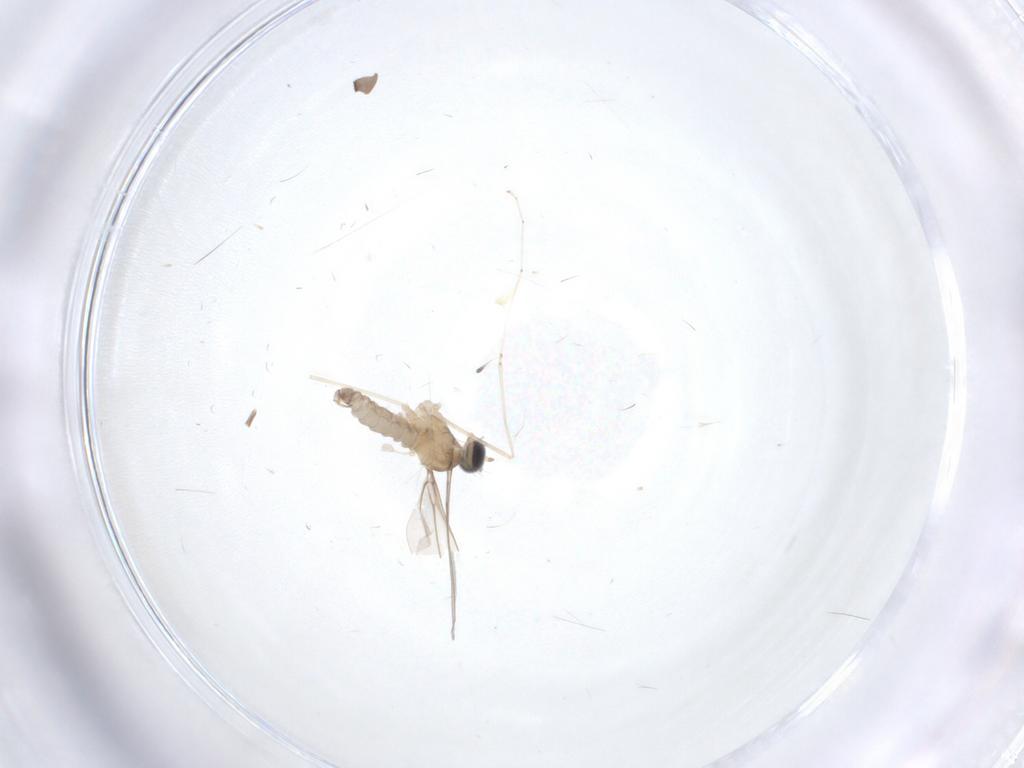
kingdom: Animalia
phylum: Arthropoda
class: Insecta
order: Diptera
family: Cecidomyiidae
